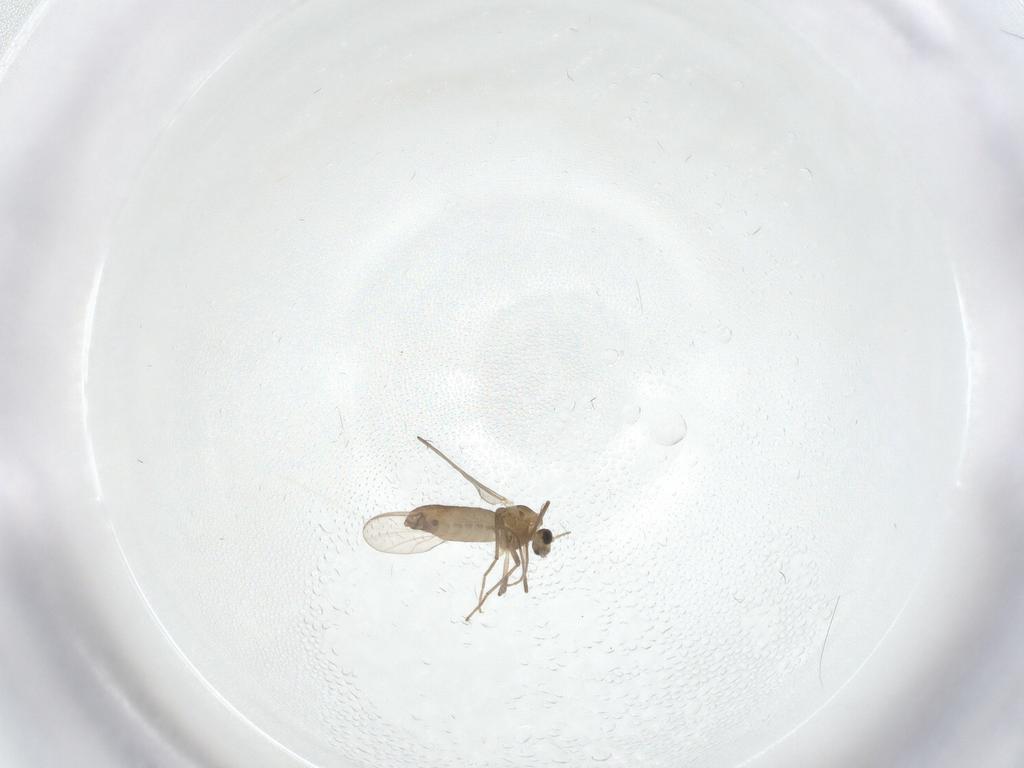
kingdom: Animalia
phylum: Arthropoda
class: Insecta
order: Diptera
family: Chironomidae
